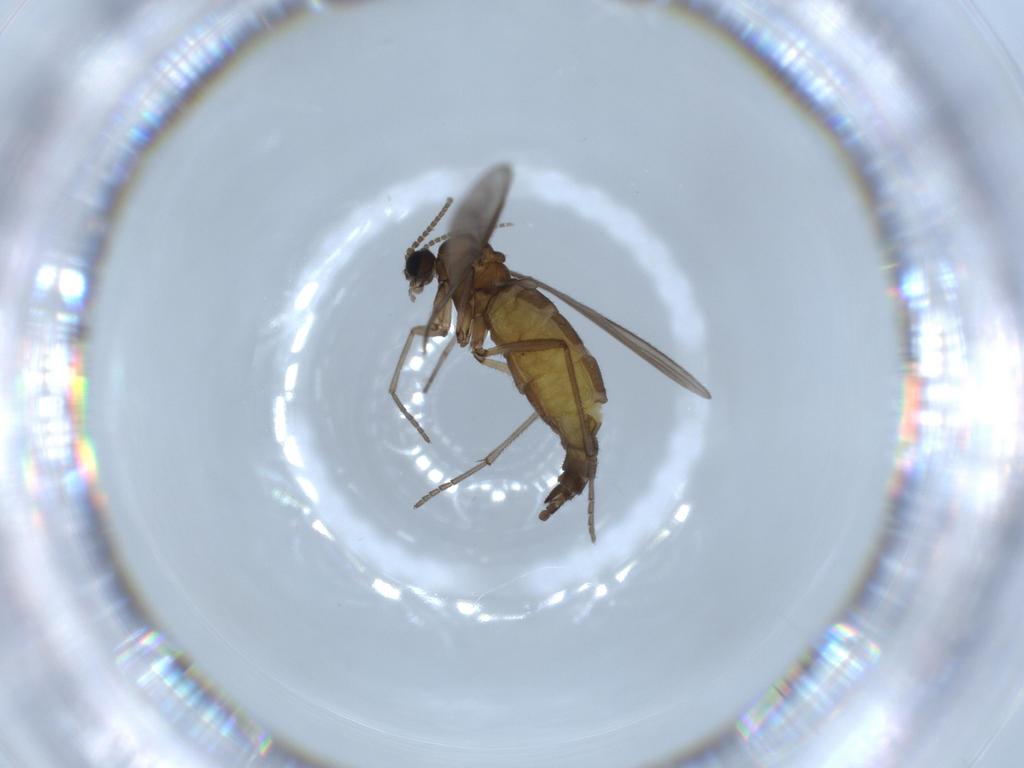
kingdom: Animalia
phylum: Arthropoda
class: Insecta
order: Diptera
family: Sciaridae
